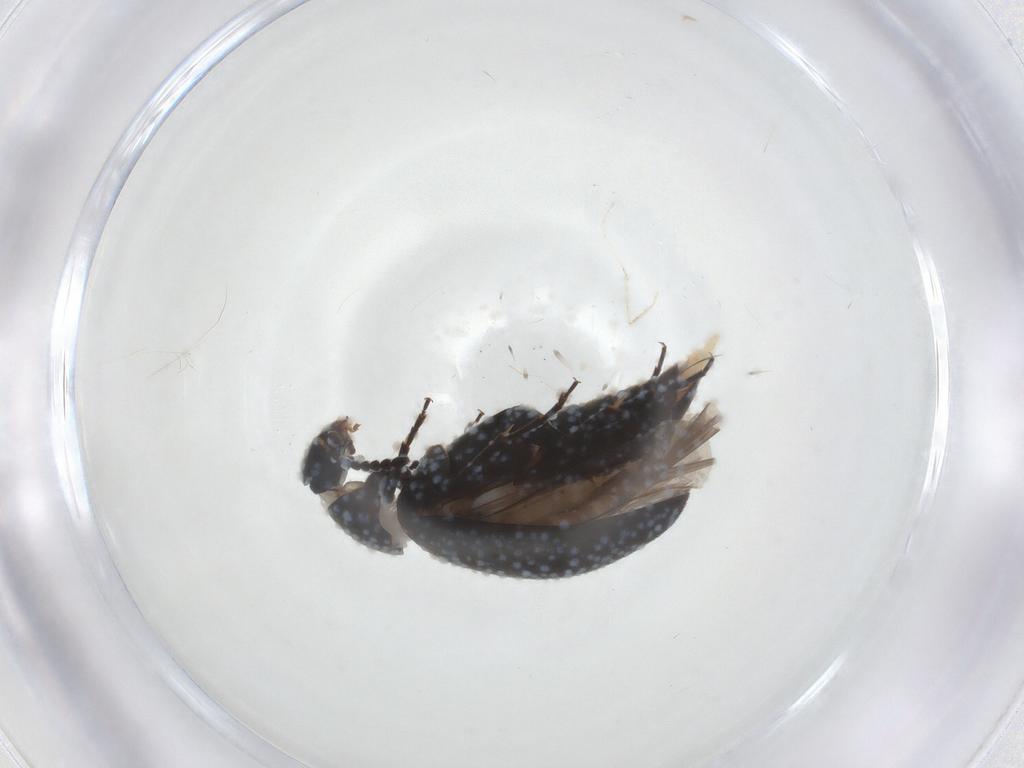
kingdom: Animalia
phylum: Arthropoda
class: Insecta
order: Coleoptera
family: Scraptiidae
